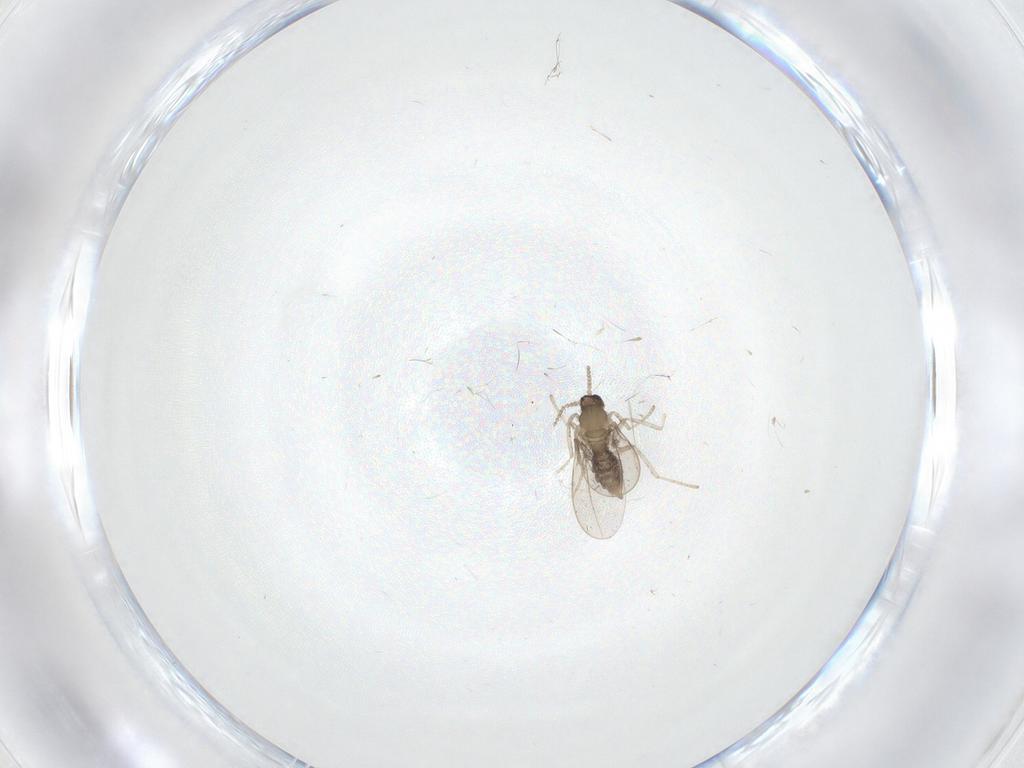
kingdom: Animalia
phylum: Arthropoda
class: Insecta
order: Diptera
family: Cecidomyiidae
